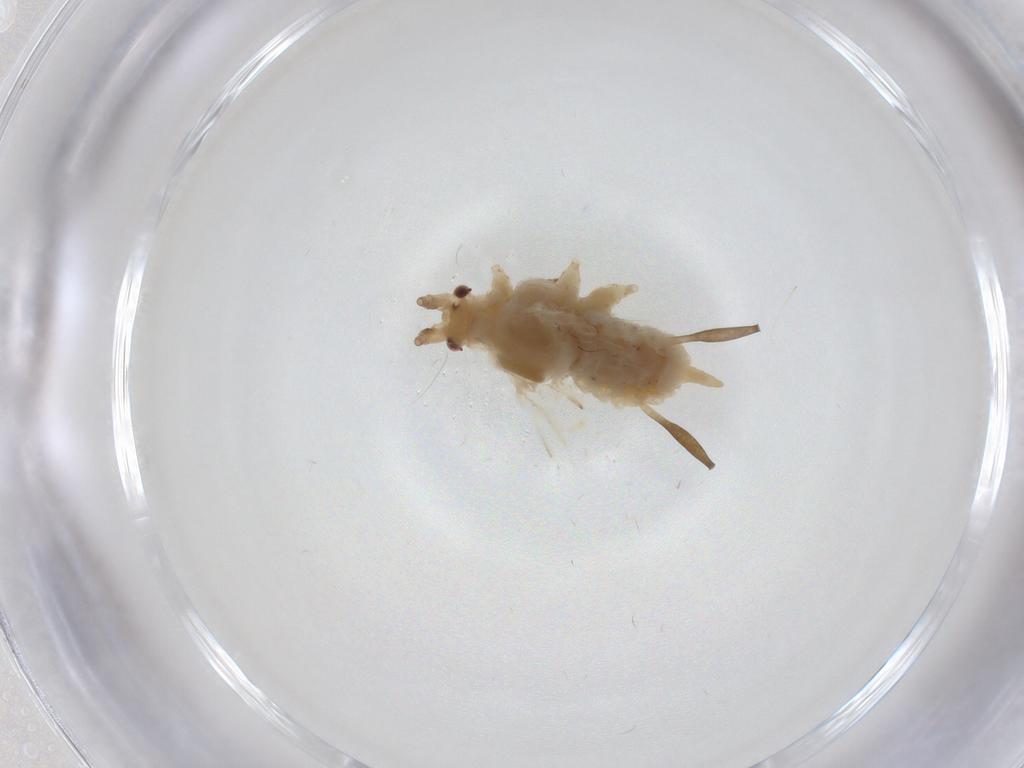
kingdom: Animalia
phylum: Arthropoda
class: Insecta
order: Hemiptera
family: Aphididae
